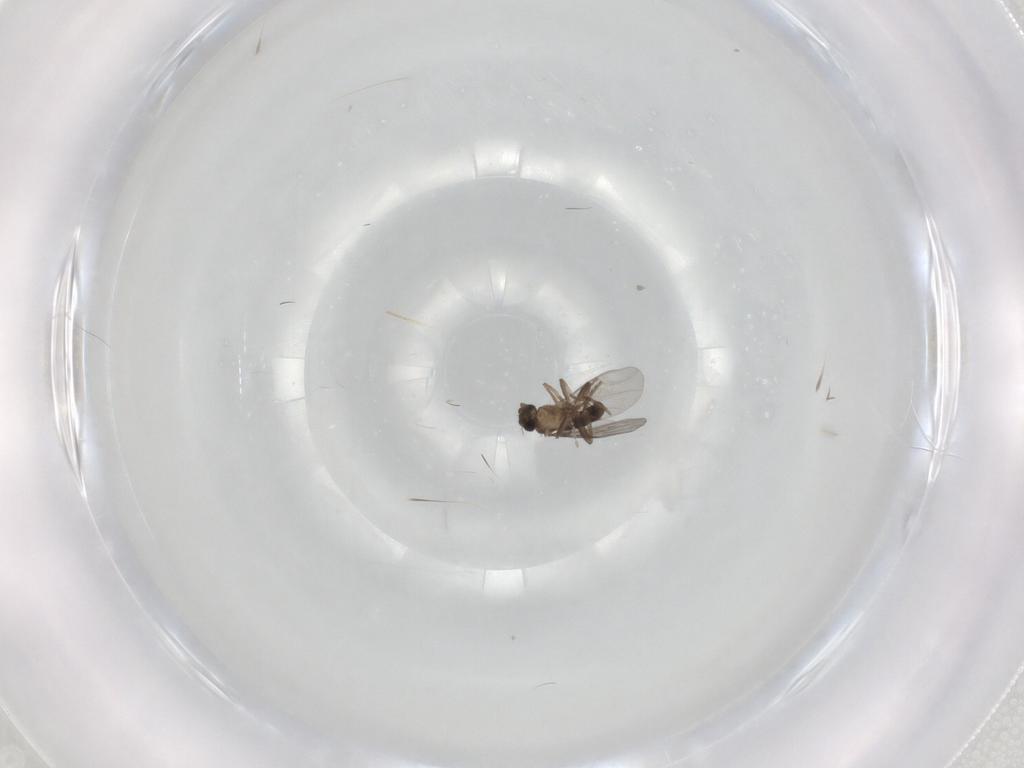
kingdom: Animalia
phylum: Arthropoda
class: Insecta
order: Diptera
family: Cecidomyiidae
